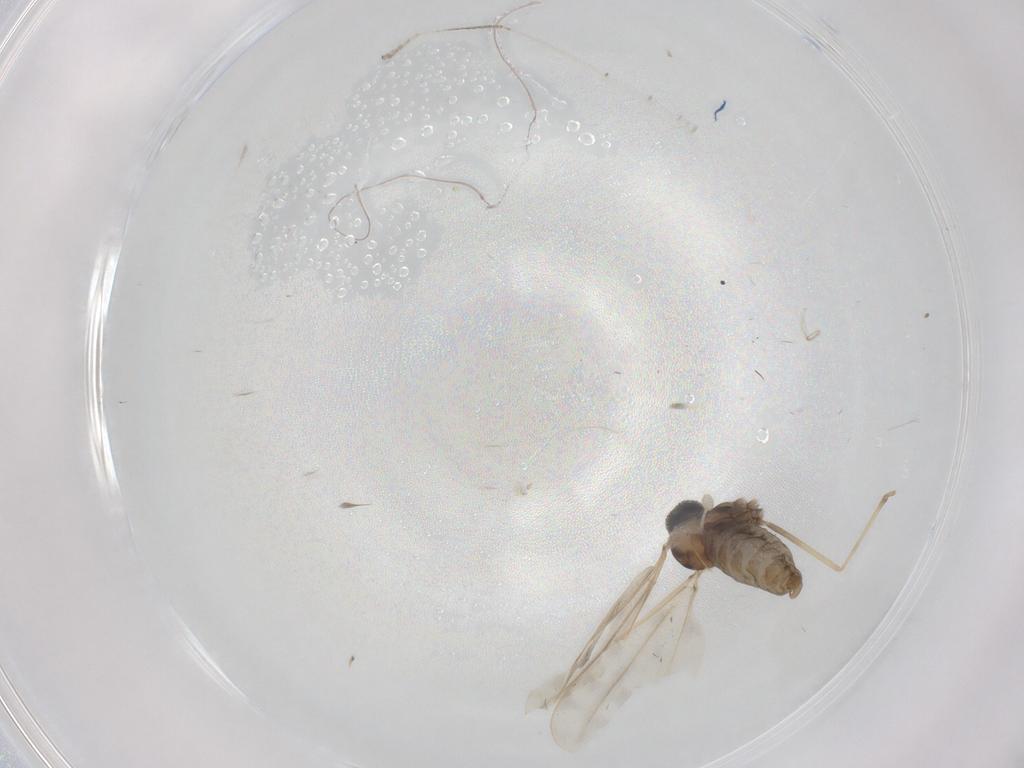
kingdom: Animalia
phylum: Arthropoda
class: Insecta
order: Diptera
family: Cecidomyiidae
